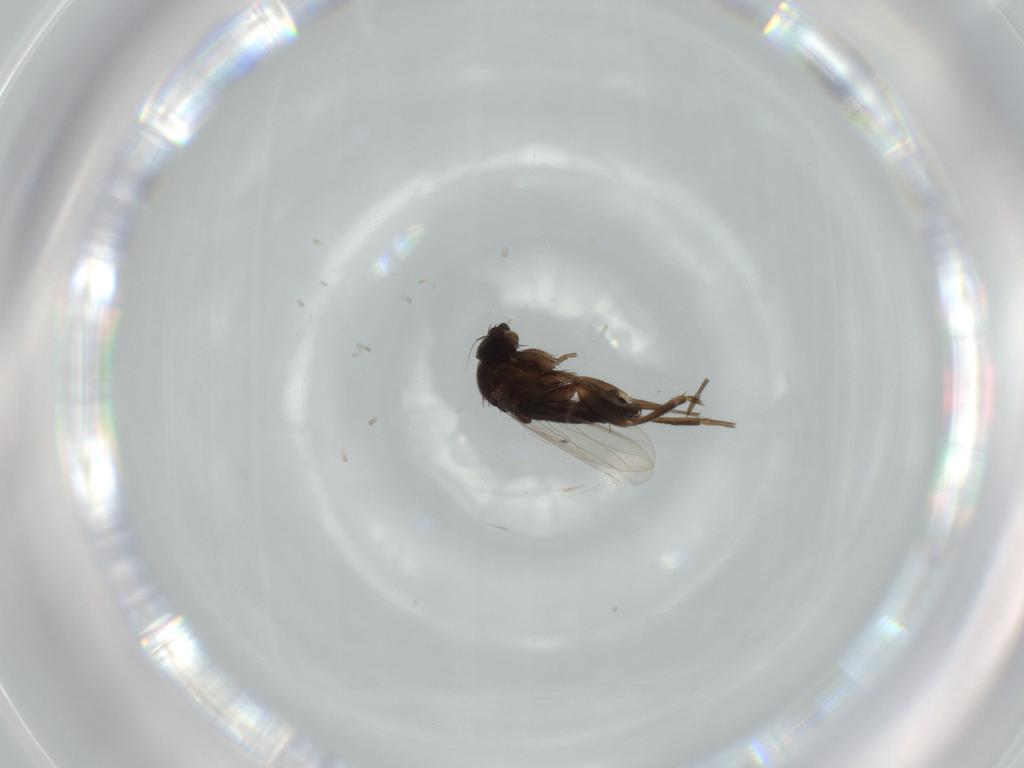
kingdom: Animalia
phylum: Arthropoda
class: Insecta
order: Diptera
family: Phoridae
